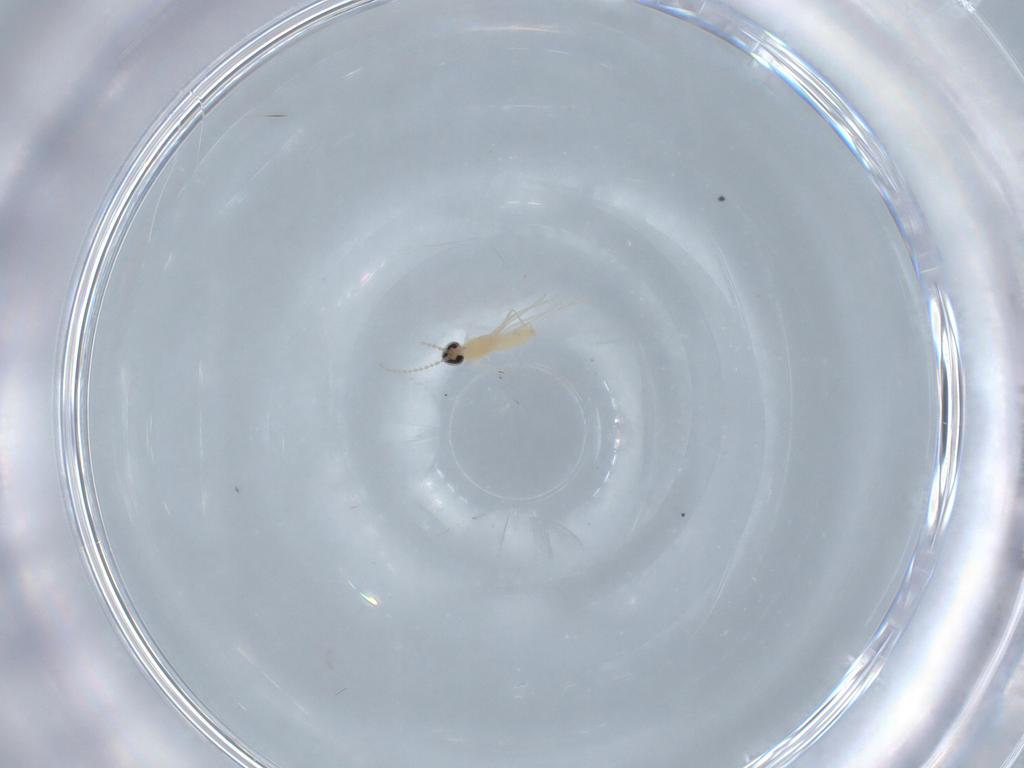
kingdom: Animalia
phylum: Arthropoda
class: Insecta
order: Diptera
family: Cecidomyiidae
